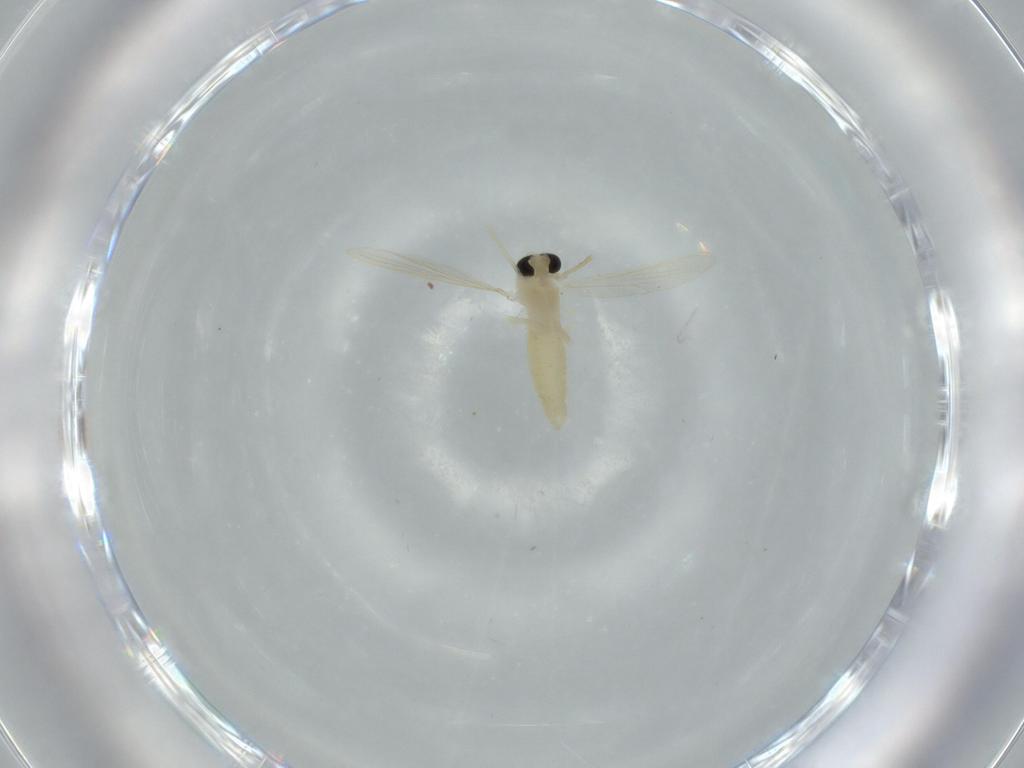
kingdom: Animalia
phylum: Arthropoda
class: Insecta
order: Diptera
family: Chironomidae
